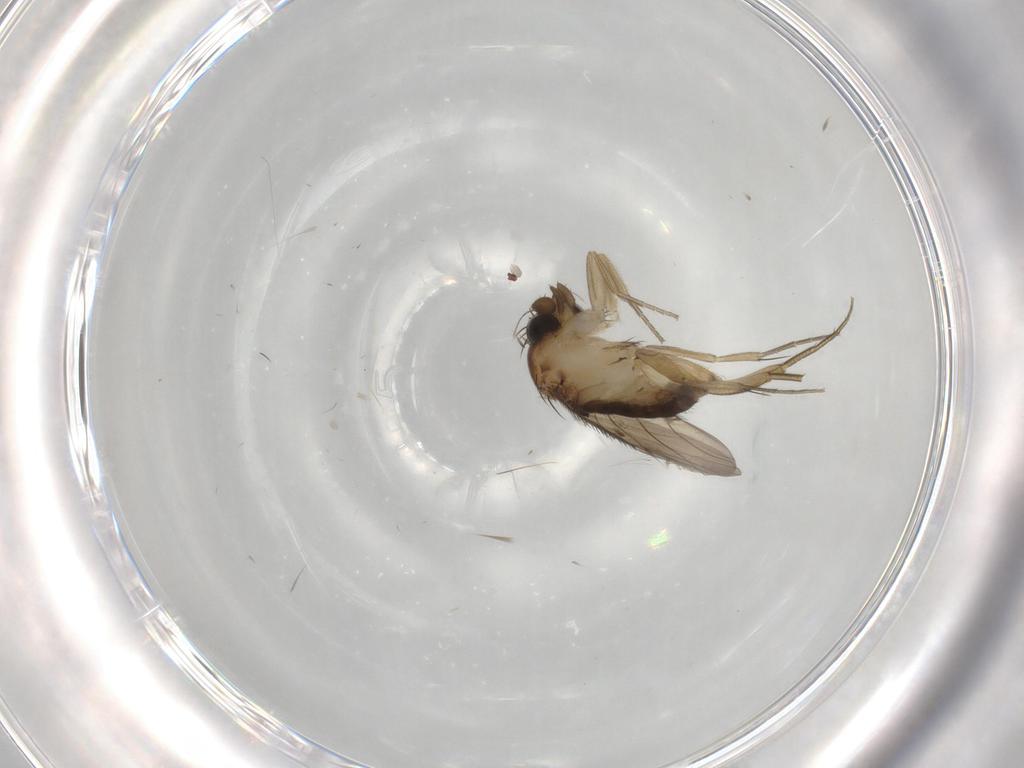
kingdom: Animalia
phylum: Arthropoda
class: Insecta
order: Diptera
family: Phoridae
